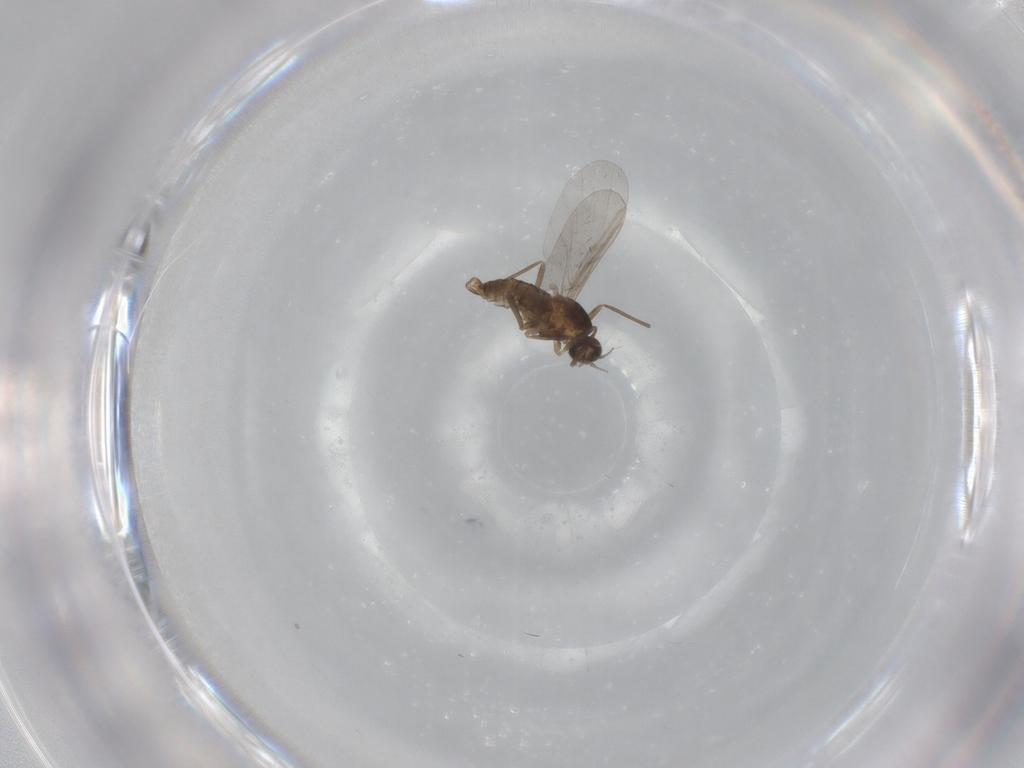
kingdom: Animalia
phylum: Arthropoda
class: Insecta
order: Diptera
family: Cecidomyiidae
